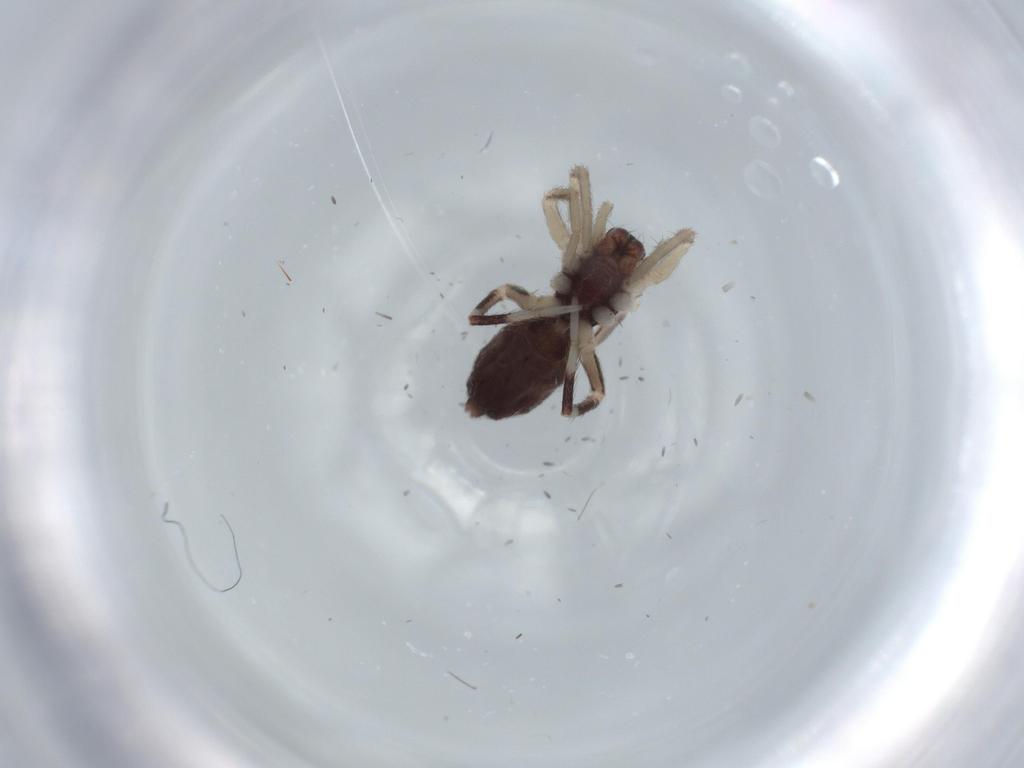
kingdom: Animalia
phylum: Arthropoda
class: Arachnida
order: Araneae
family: Corinnidae
